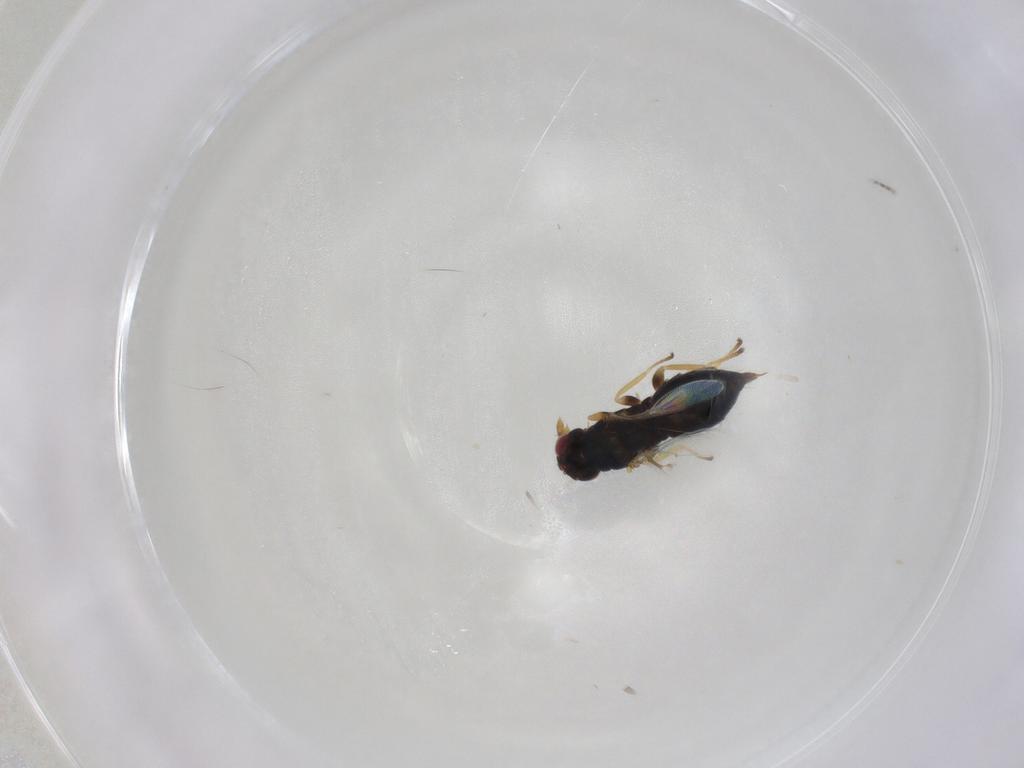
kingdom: Animalia
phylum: Arthropoda
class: Insecta
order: Hymenoptera
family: Eulophidae
